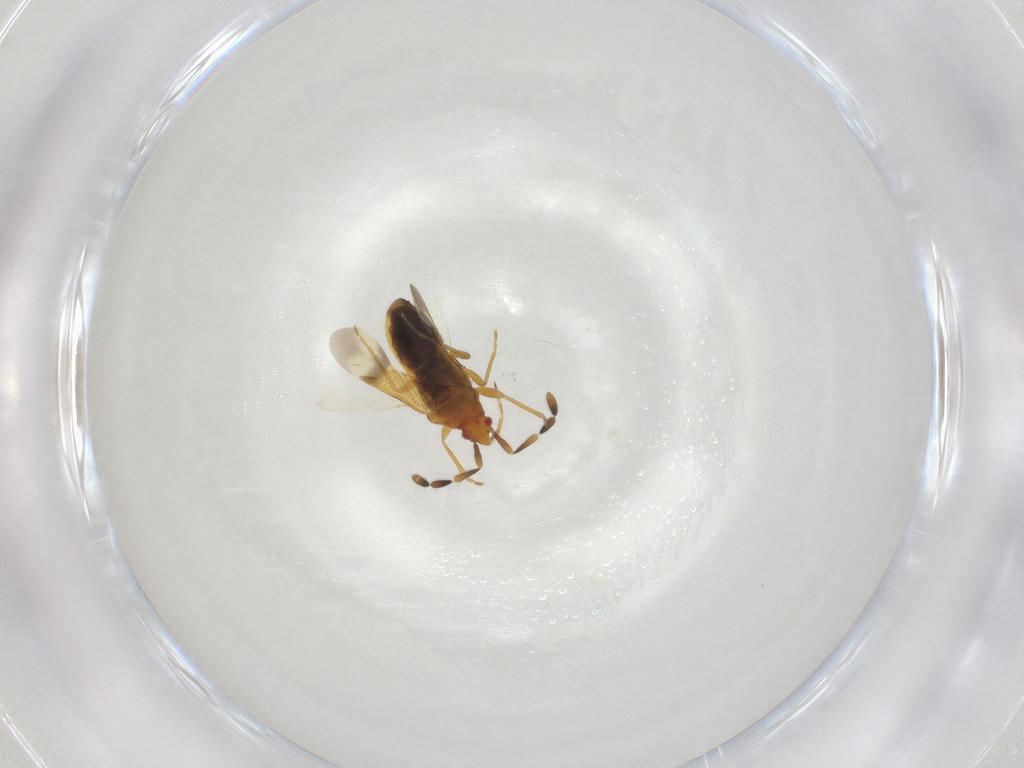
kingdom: Animalia
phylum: Arthropoda
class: Insecta
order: Hemiptera
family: Rhyparochromidae
